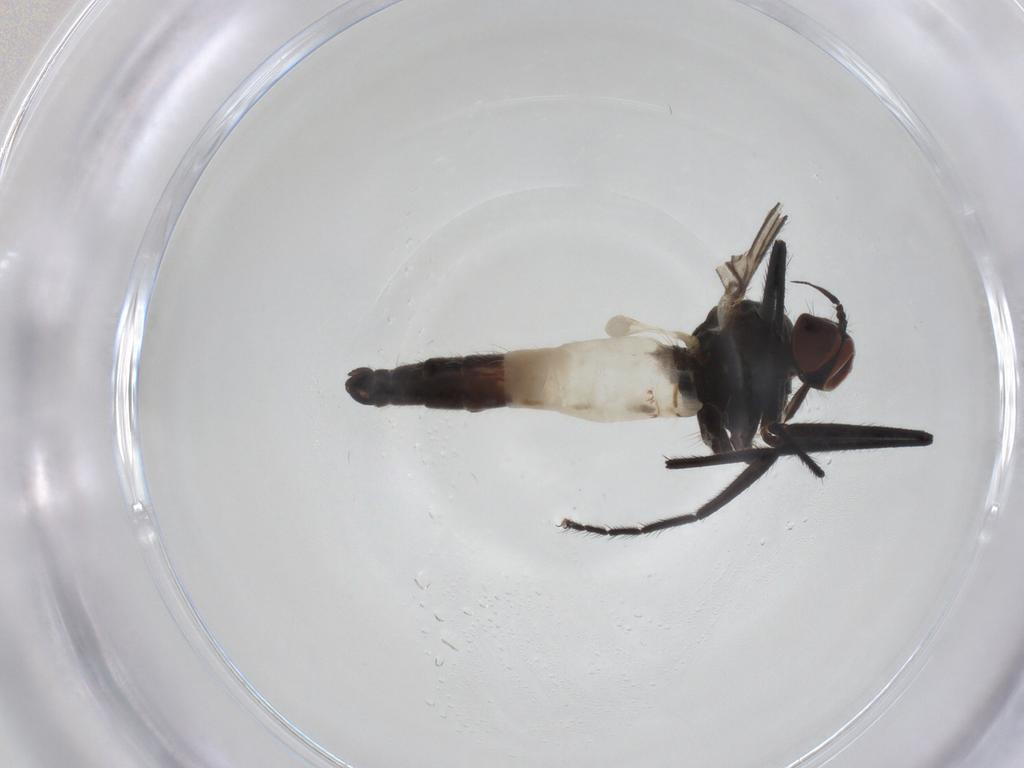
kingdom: Animalia
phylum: Arthropoda
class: Insecta
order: Diptera
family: Empididae
